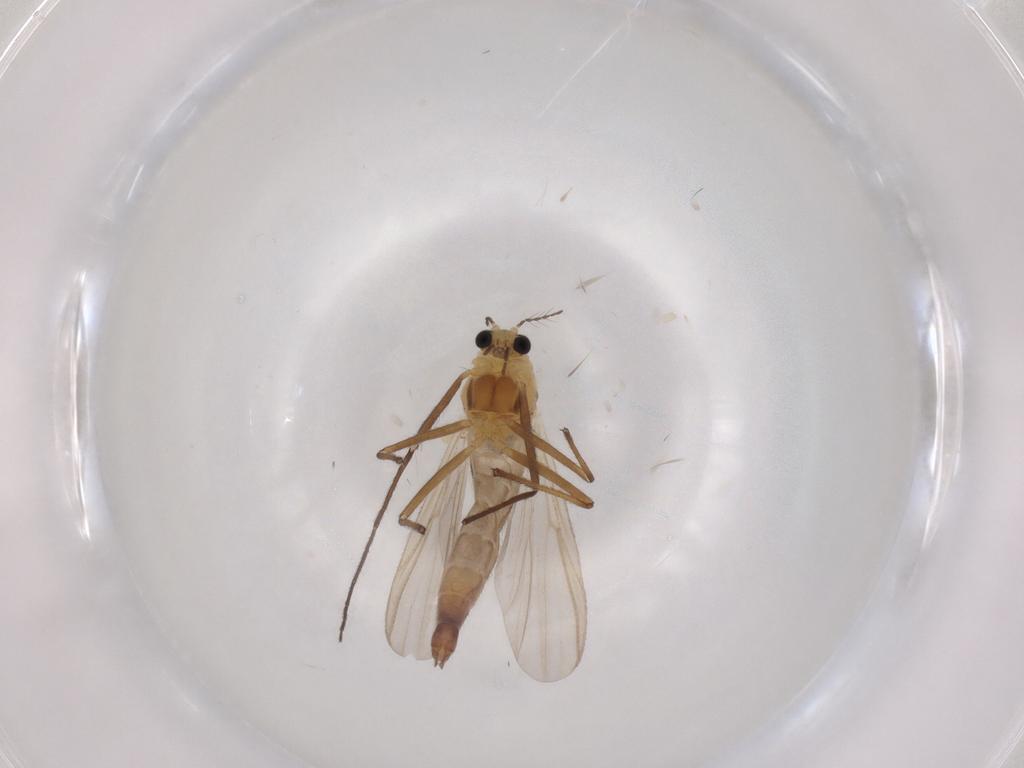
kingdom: Animalia
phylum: Arthropoda
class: Insecta
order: Diptera
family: Chironomidae
